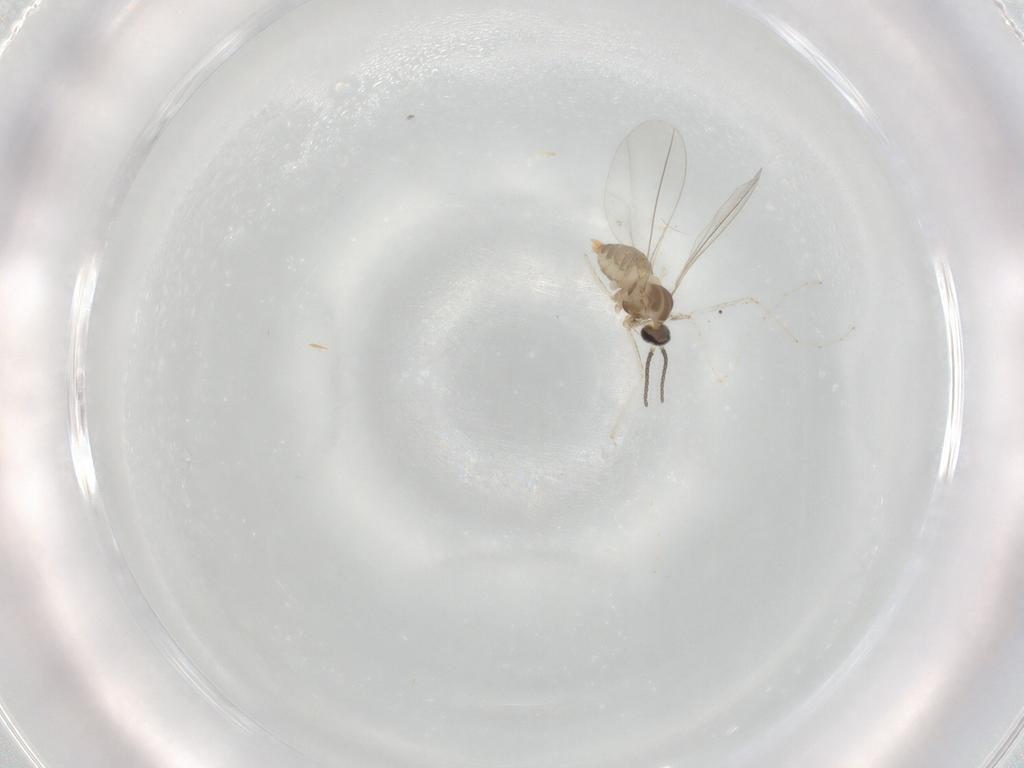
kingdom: Animalia
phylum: Arthropoda
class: Insecta
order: Diptera
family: Cecidomyiidae
